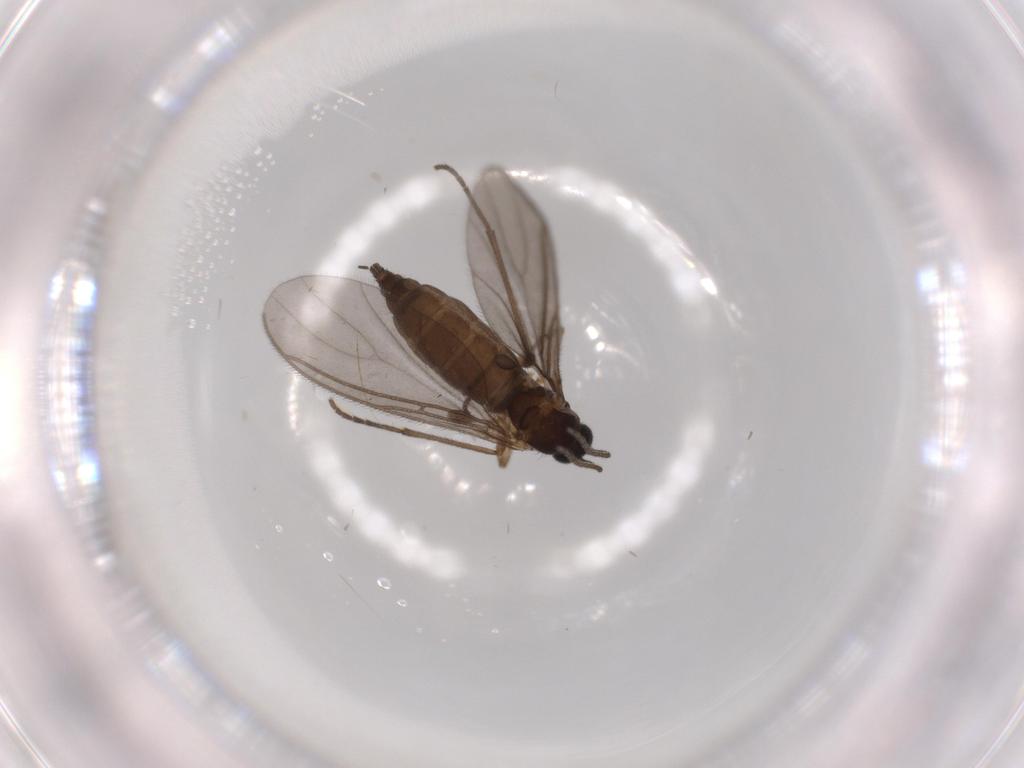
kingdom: Animalia
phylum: Arthropoda
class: Insecta
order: Diptera
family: Sciaridae
